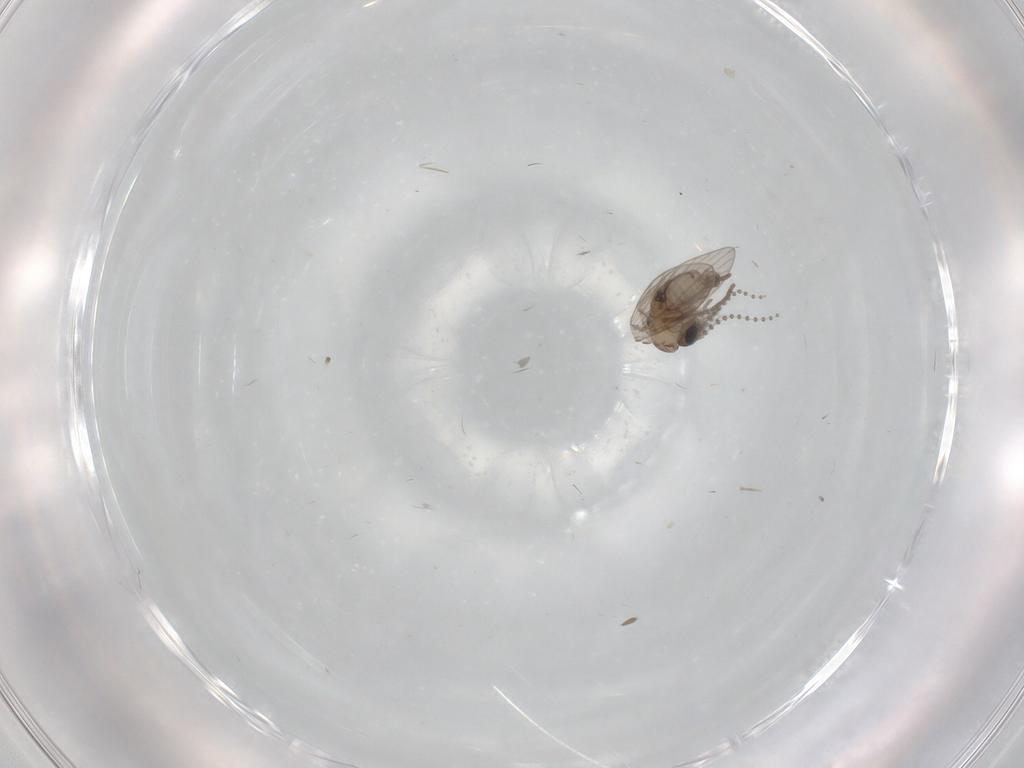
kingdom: Animalia
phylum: Arthropoda
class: Insecta
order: Diptera
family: Psychodidae
